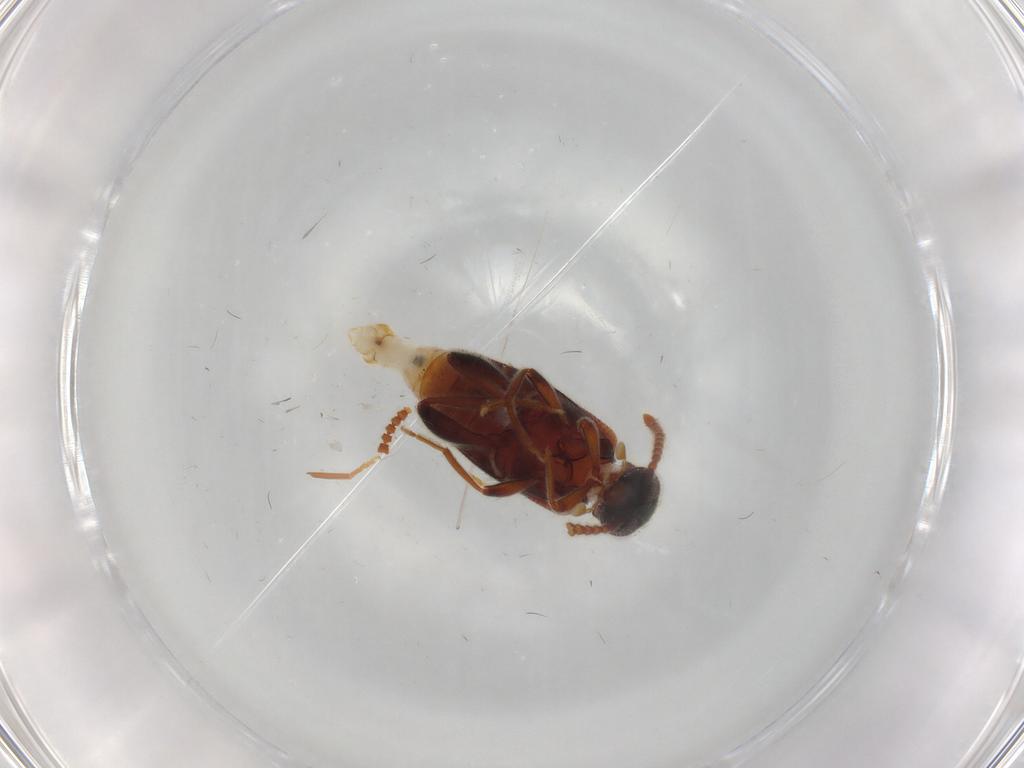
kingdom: Animalia
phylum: Arthropoda
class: Insecta
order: Coleoptera
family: Aderidae
